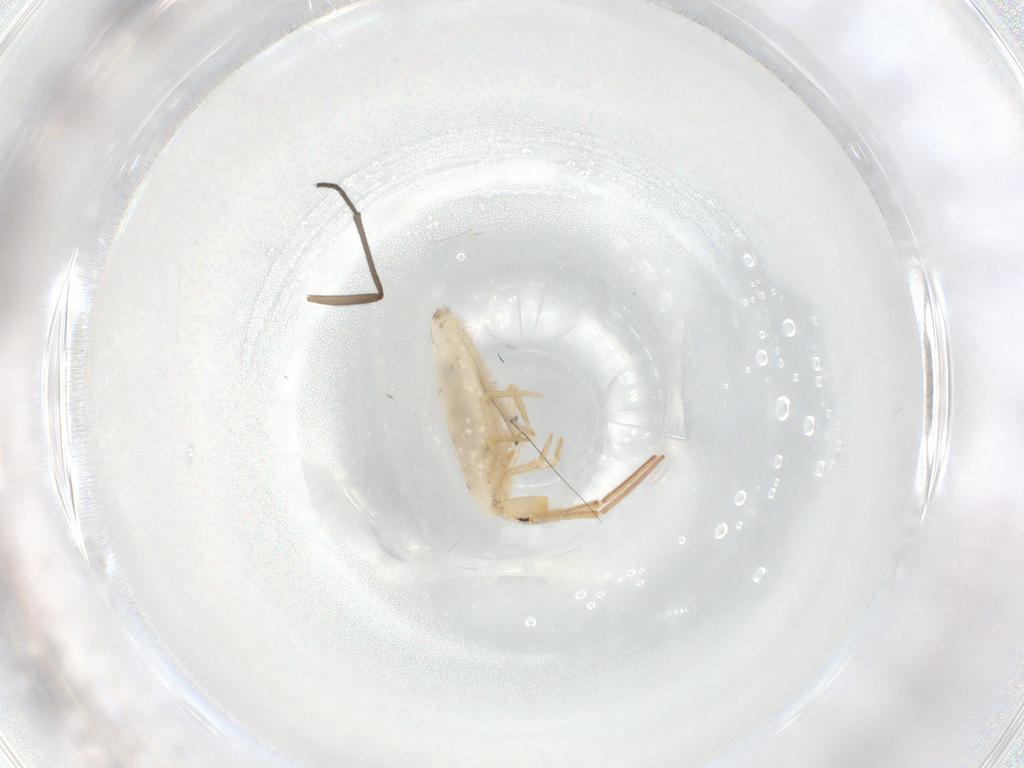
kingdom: Animalia
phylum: Arthropoda
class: Collembola
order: Entomobryomorpha
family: Entomobryidae
